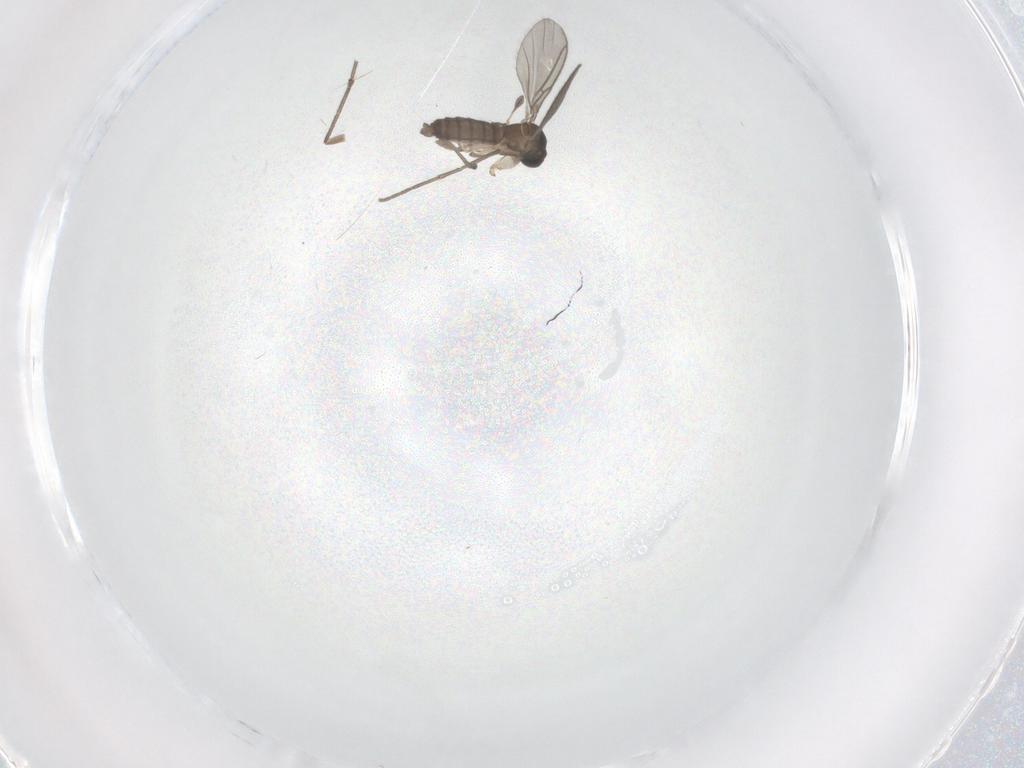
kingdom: Animalia
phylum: Arthropoda
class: Insecta
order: Diptera
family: Sciaridae
